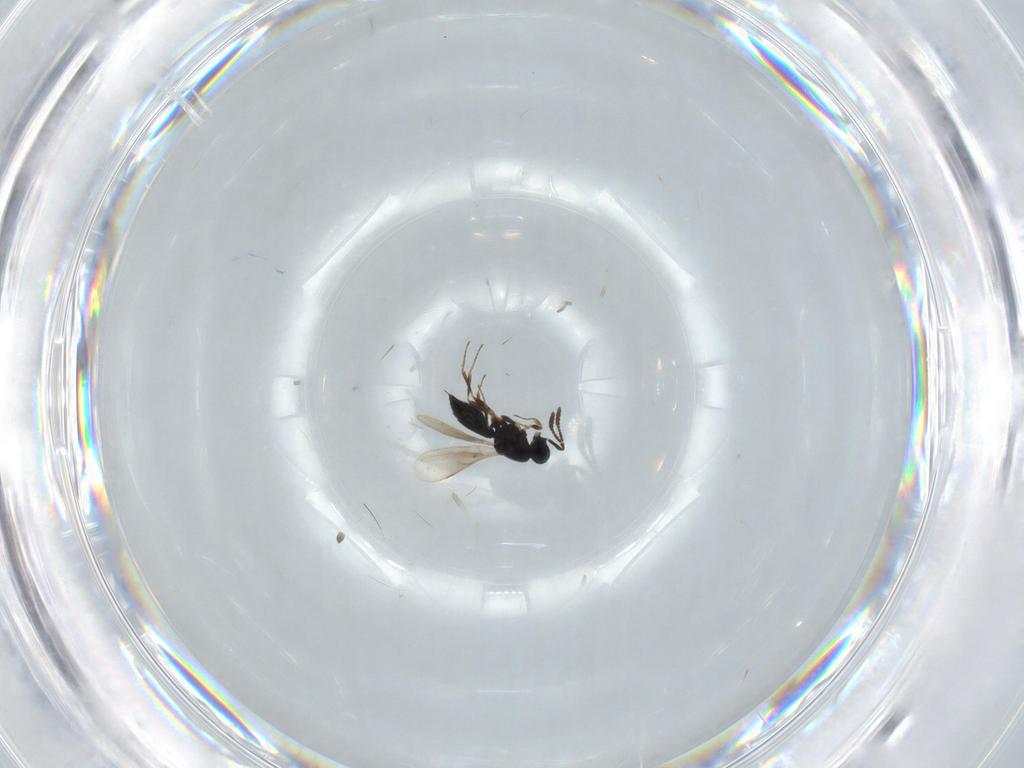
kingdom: Animalia
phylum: Arthropoda
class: Insecta
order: Hymenoptera
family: Scelionidae
